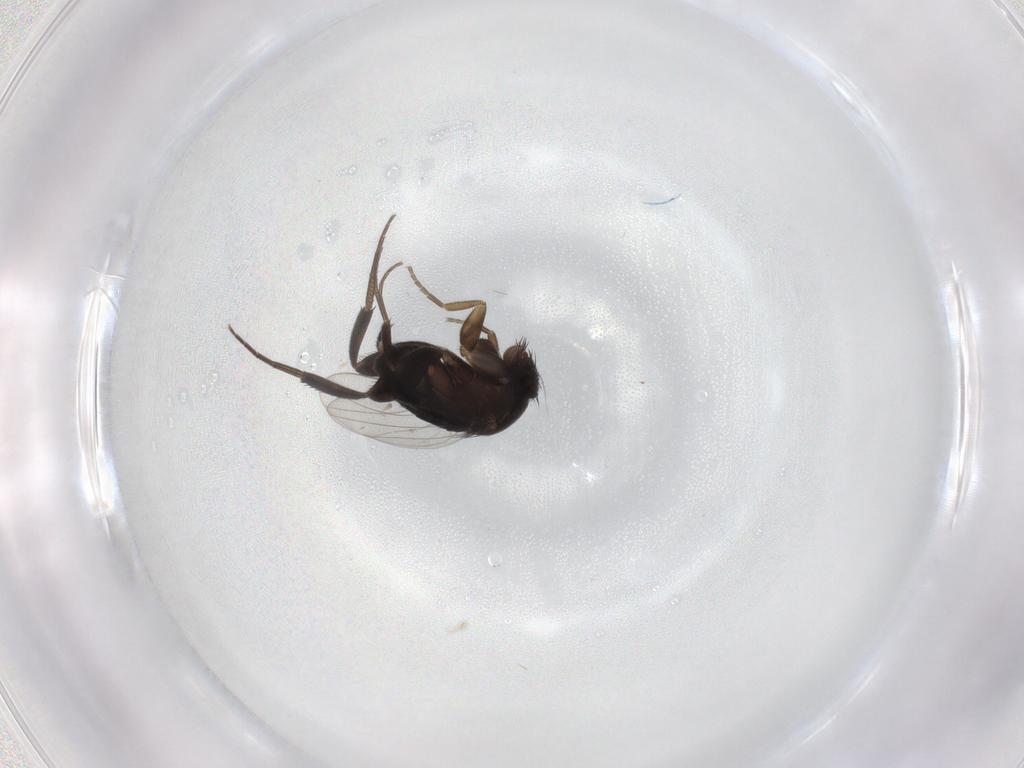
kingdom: Animalia
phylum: Arthropoda
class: Insecta
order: Diptera
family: Phoridae
